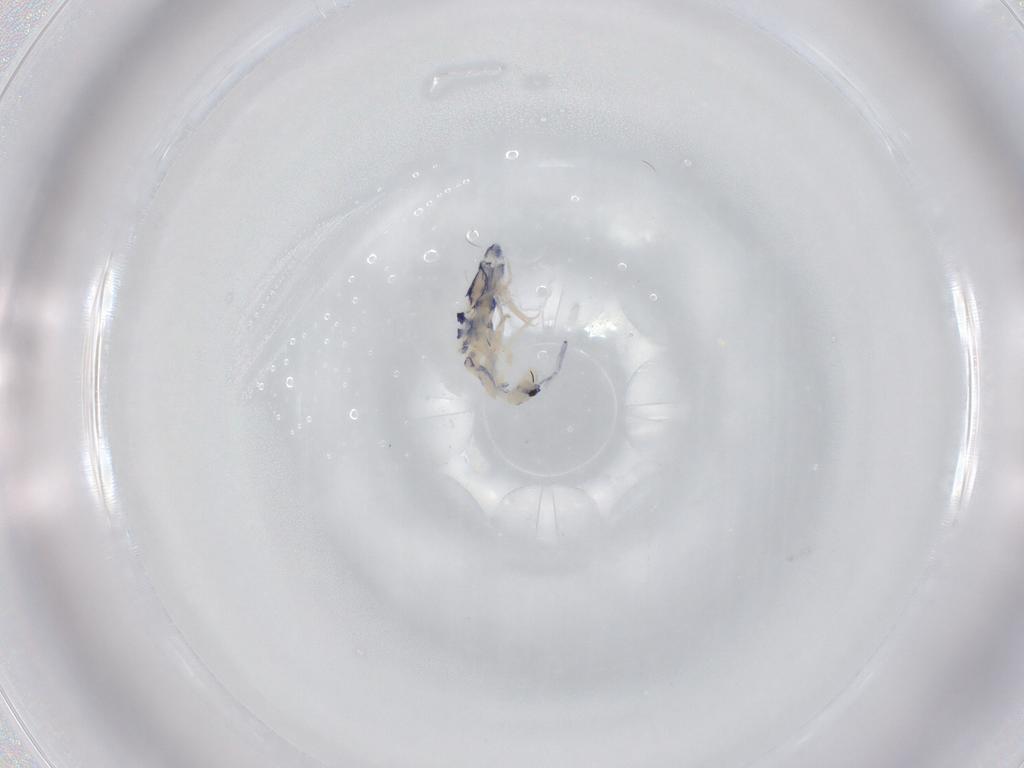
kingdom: Animalia
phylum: Arthropoda
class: Collembola
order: Entomobryomorpha
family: Entomobryidae
